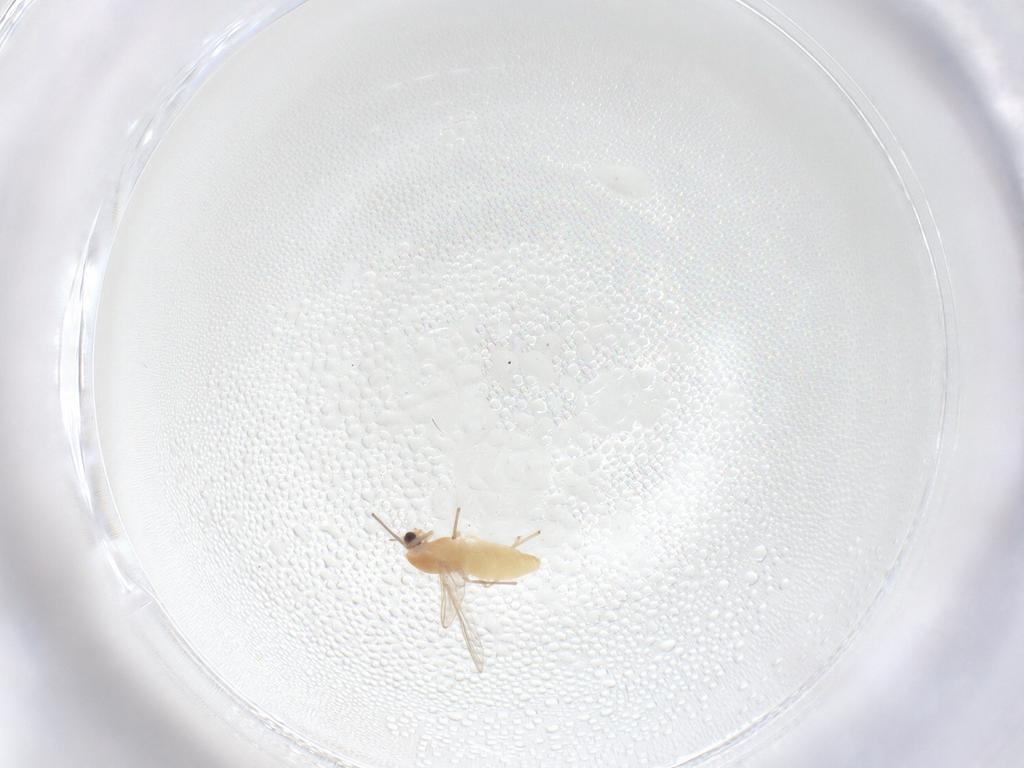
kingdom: Animalia
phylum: Arthropoda
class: Insecta
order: Diptera
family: Chironomidae
